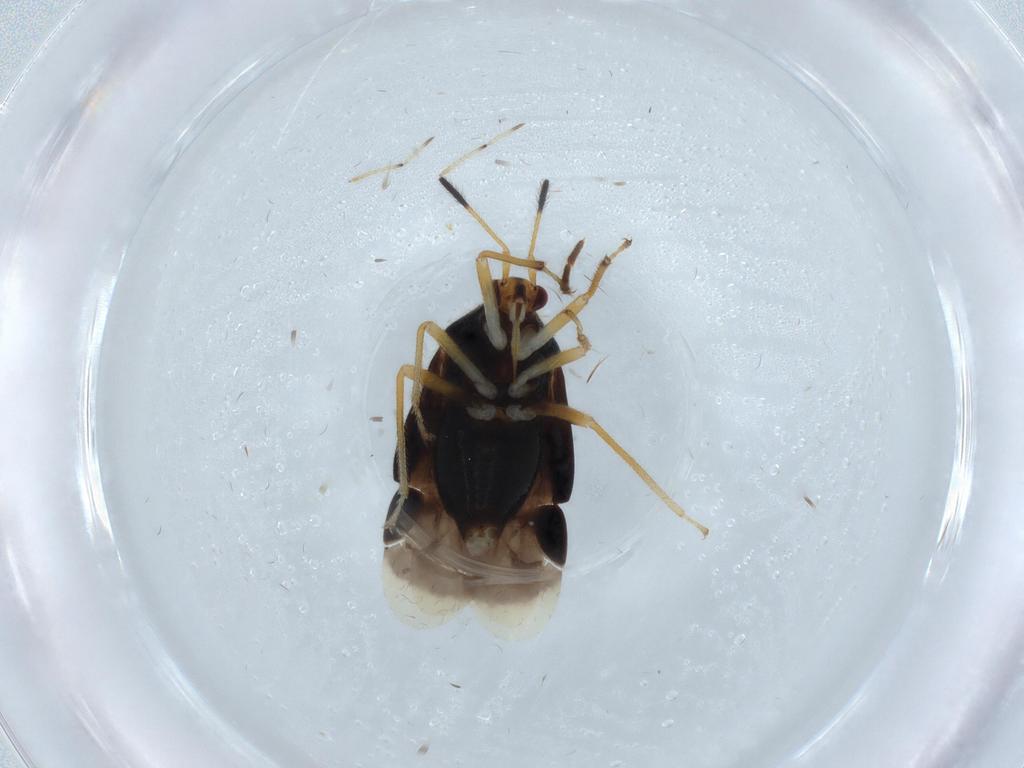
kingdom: Animalia
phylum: Arthropoda
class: Insecta
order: Hemiptera
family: Miridae
